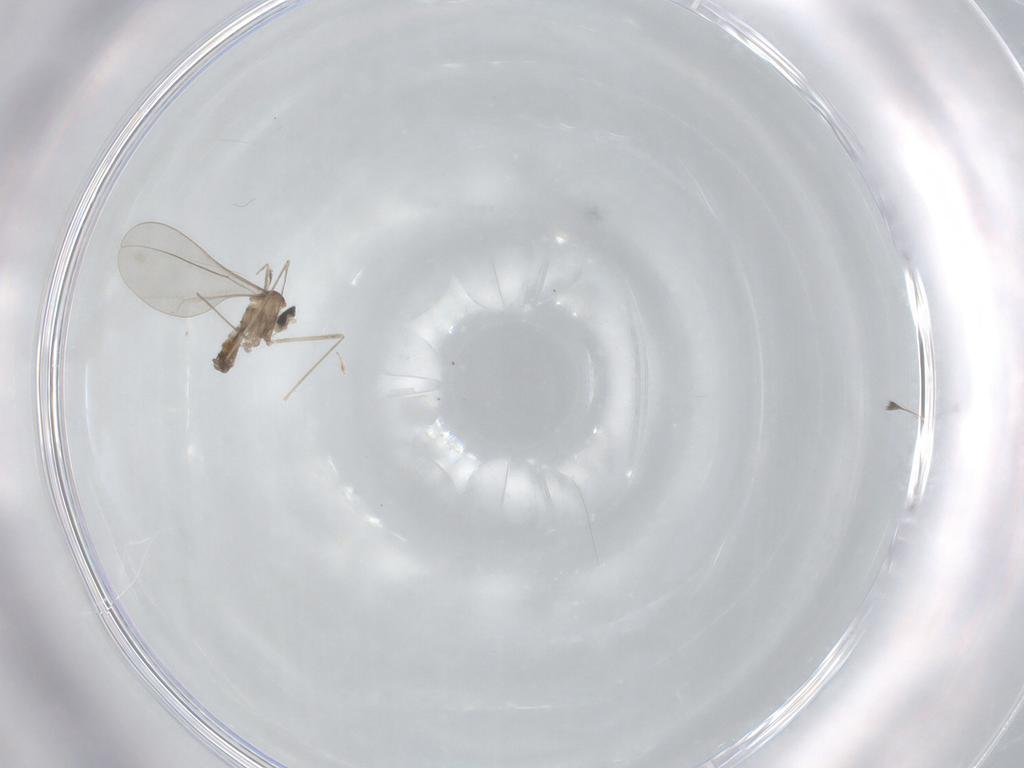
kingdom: Animalia
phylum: Arthropoda
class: Insecta
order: Diptera
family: Cecidomyiidae
